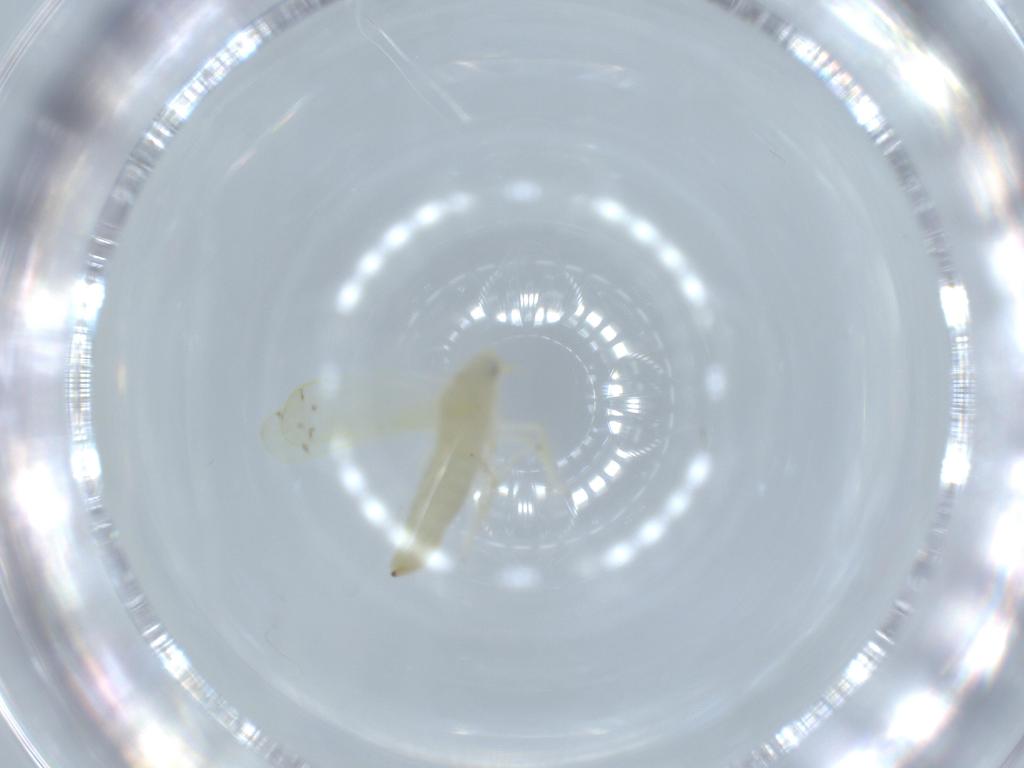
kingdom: Animalia
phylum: Arthropoda
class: Insecta
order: Hemiptera
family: Cicadellidae
